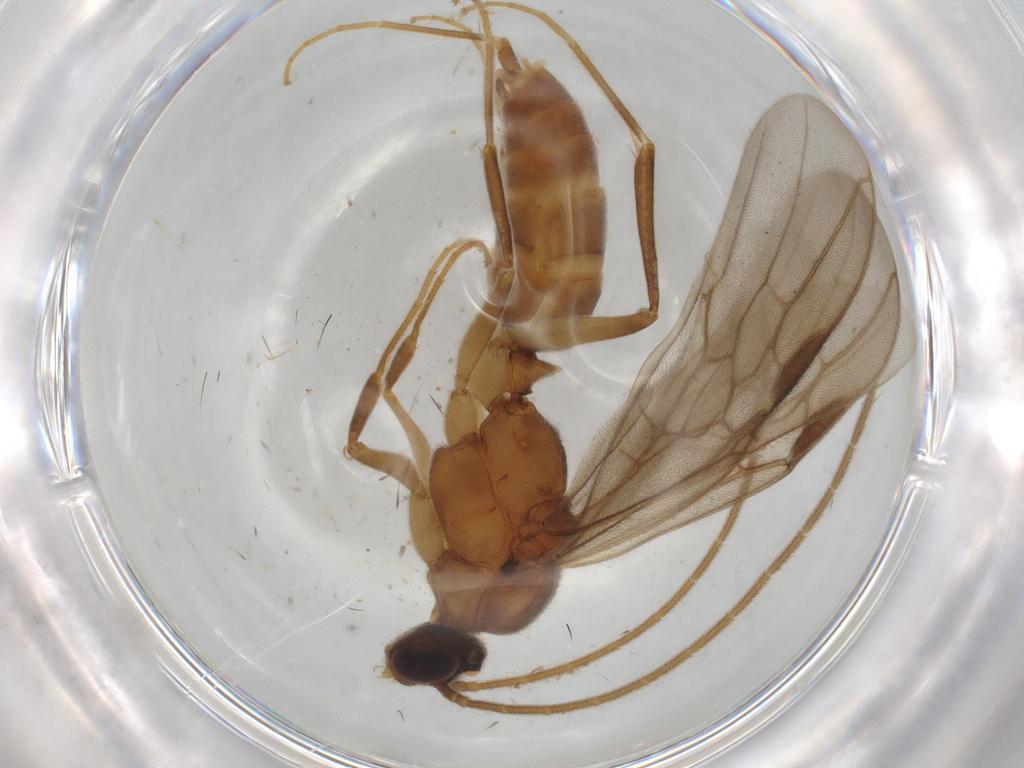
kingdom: Animalia
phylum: Arthropoda
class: Insecta
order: Hymenoptera
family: Formicidae
